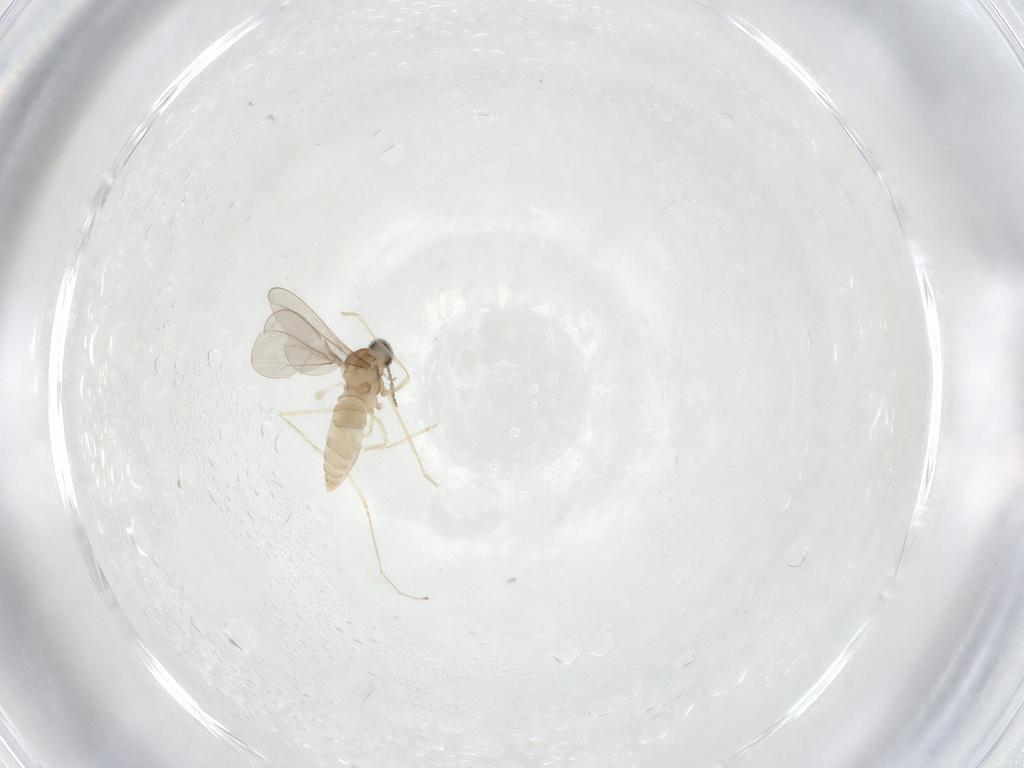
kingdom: Animalia
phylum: Arthropoda
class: Insecta
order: Diptera
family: Cecidomyiidae
